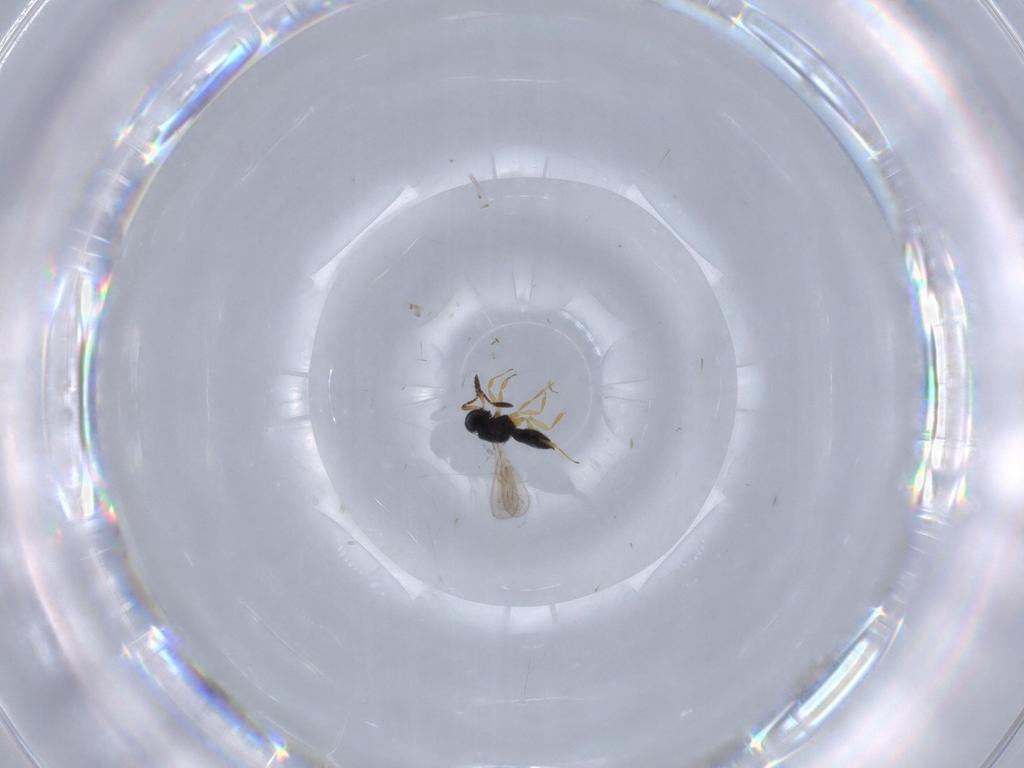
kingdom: Animalia
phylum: Arthropoda
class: Insecta
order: Hymenoptera
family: Scelionidae
